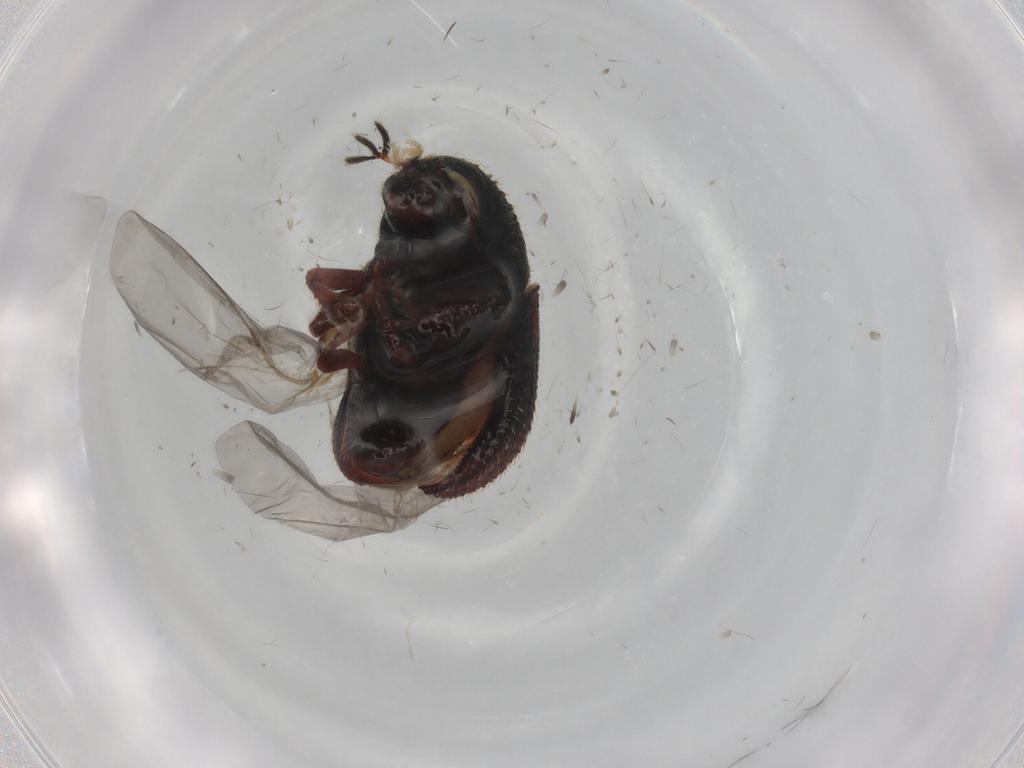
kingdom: Animalia
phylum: Arthropoda
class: Insecta
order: Coleoptera
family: Curculionidae
